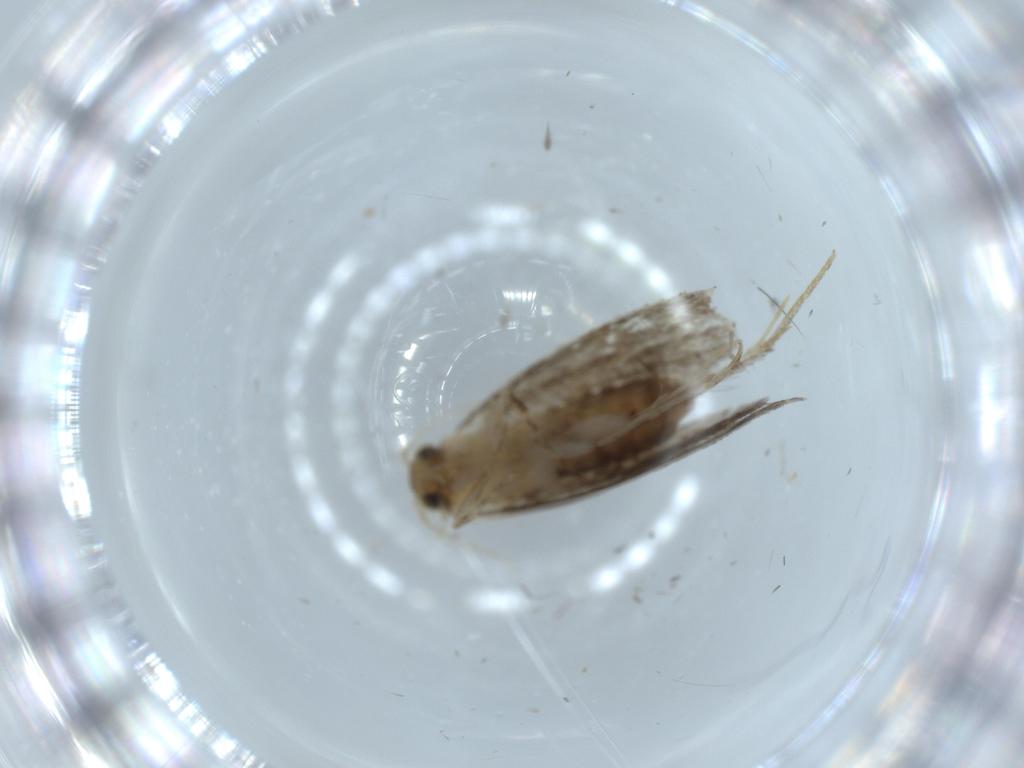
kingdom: Animalia
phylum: Arthropoda
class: Insecta
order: Lepidoptera
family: Tineidae
